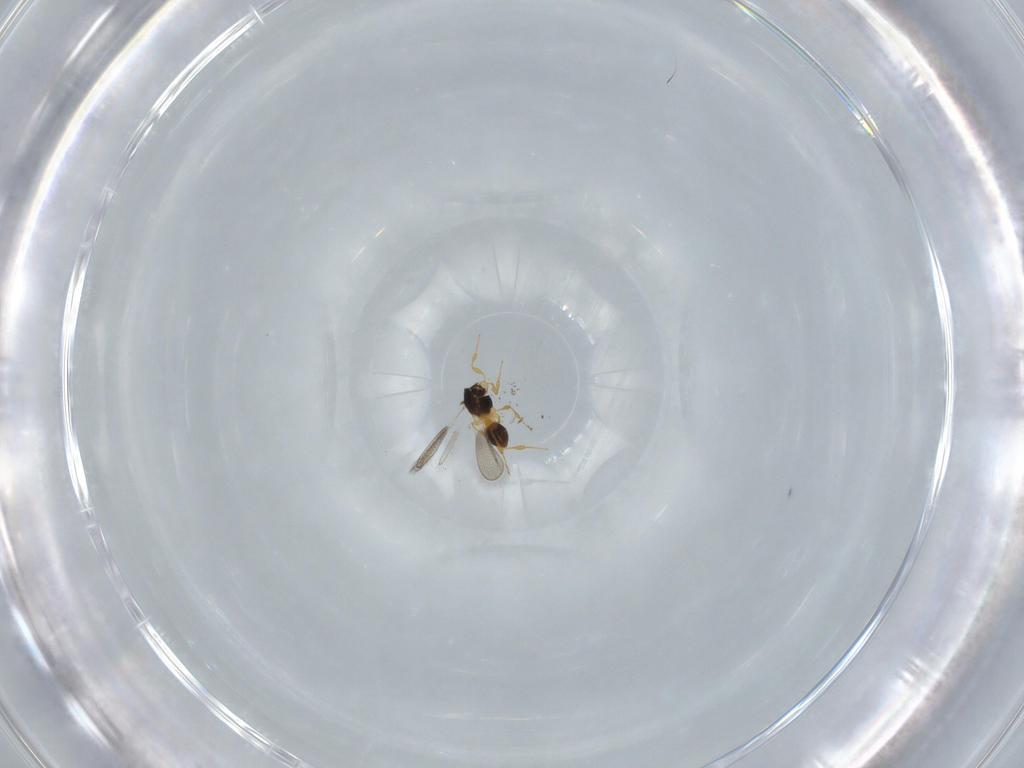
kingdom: Animalia
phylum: Arthropoda
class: Insecta
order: Hymenoptera
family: Platygastridae
